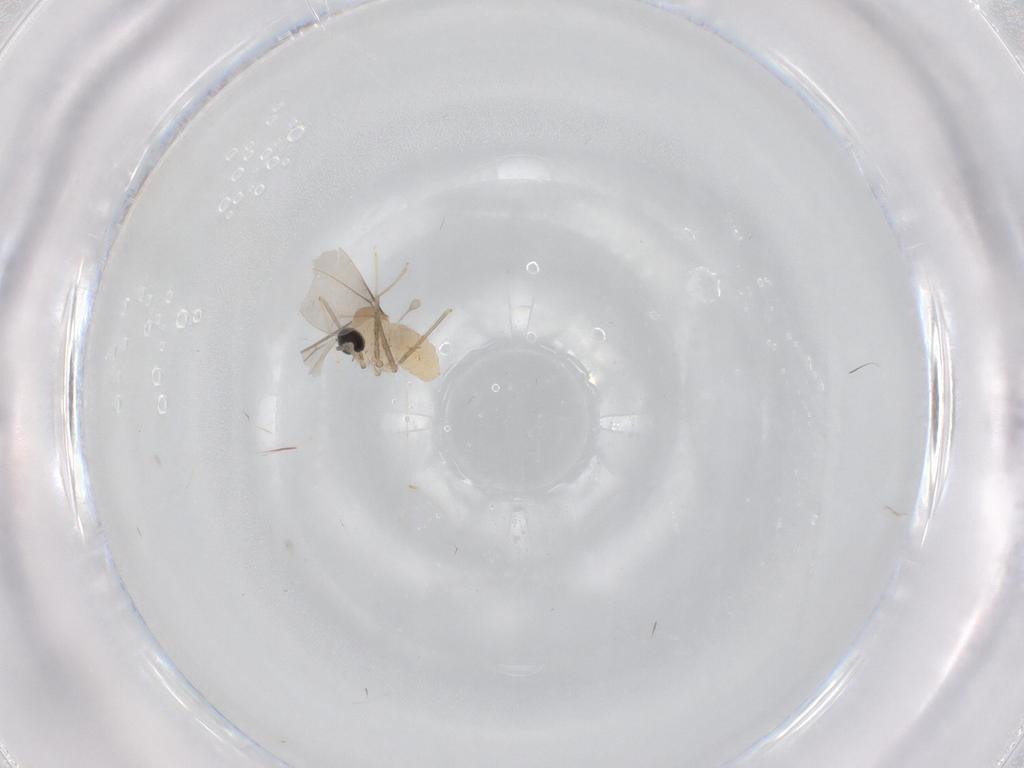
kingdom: Animalia
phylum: Arthropoda
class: Insecta
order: Diptera
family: Cecidomyiidae
